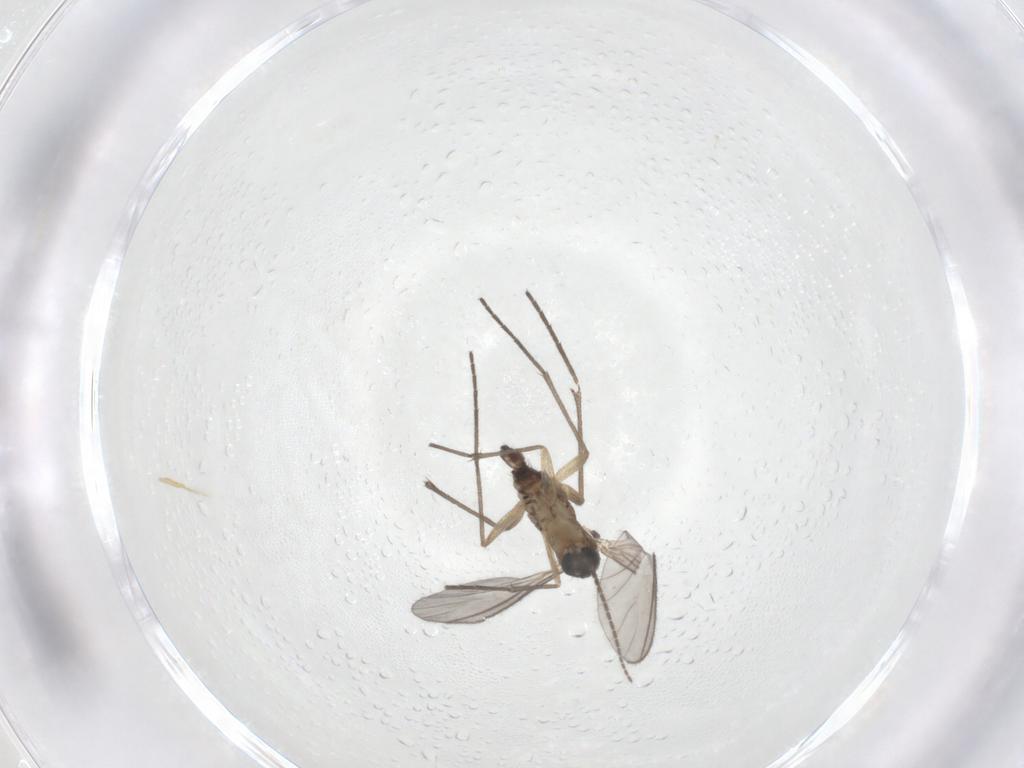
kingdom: Animalia
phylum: Arthropoda
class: Insecta
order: Diptera
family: Sciaridae
